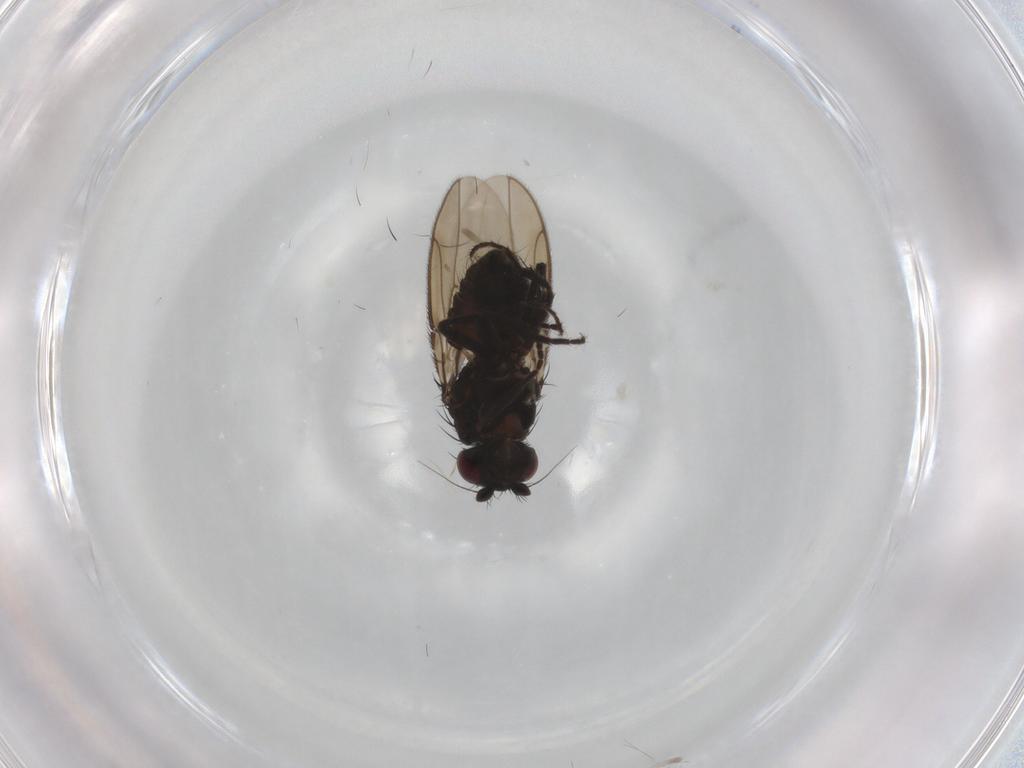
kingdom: Animalia
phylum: Arthropoda
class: Insecta
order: Diptera
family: Sphaeroceridae
